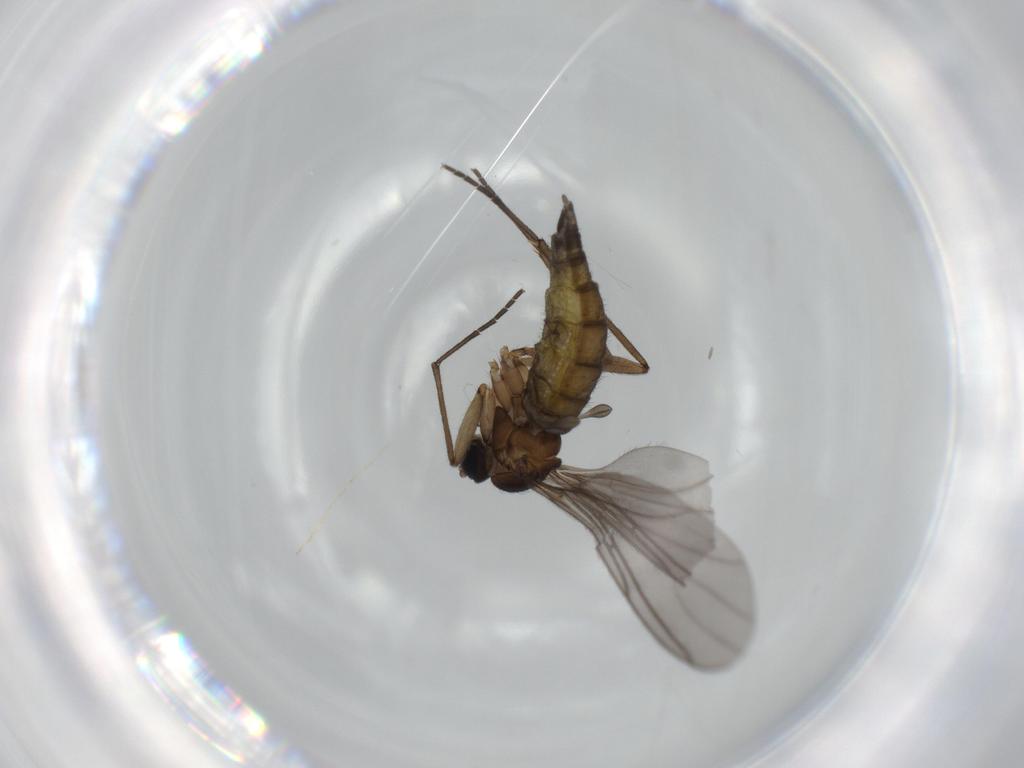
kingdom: Animalia
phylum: Arthropoda
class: Insecta
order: Diptera
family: Sciaridae
